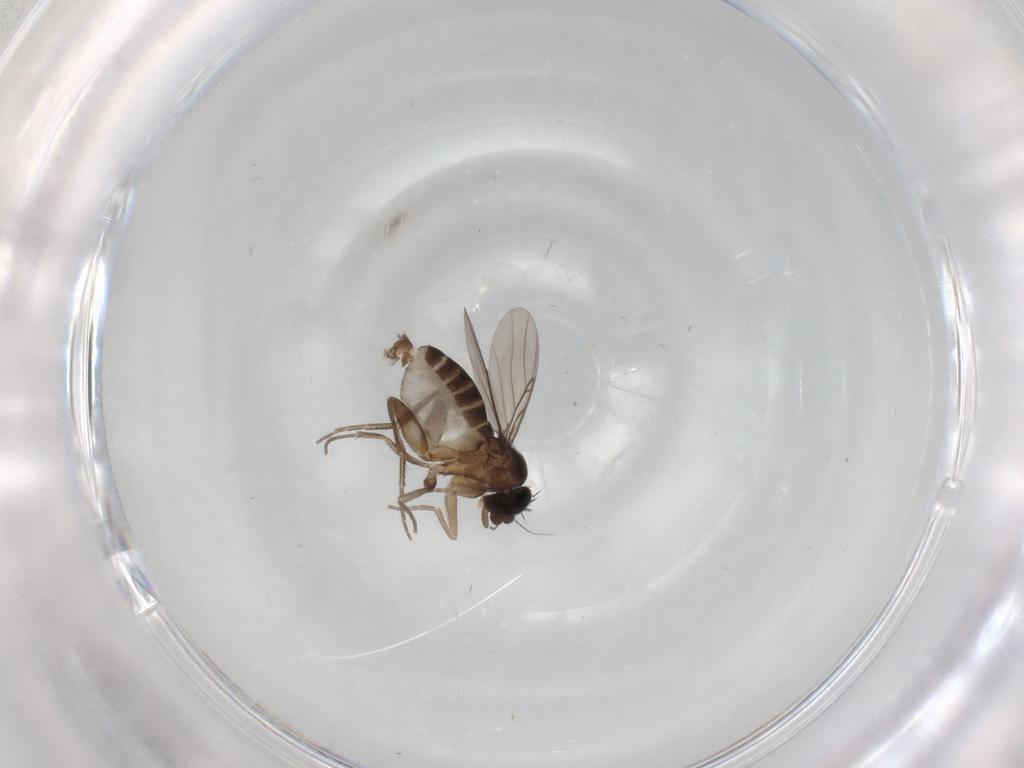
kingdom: Animalia
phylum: Arthropoda
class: Insecta
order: Diptera
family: Phoridae
